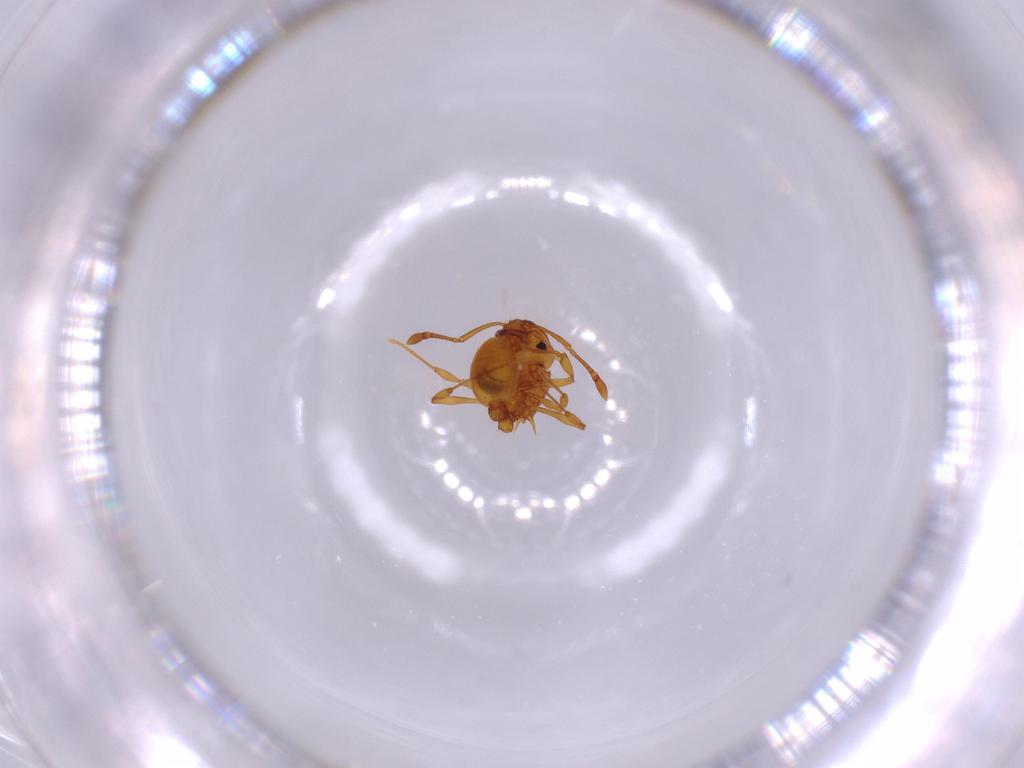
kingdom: Animalia
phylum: Arthropoda
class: Insecta
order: Hymenoptera
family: Formicidae
